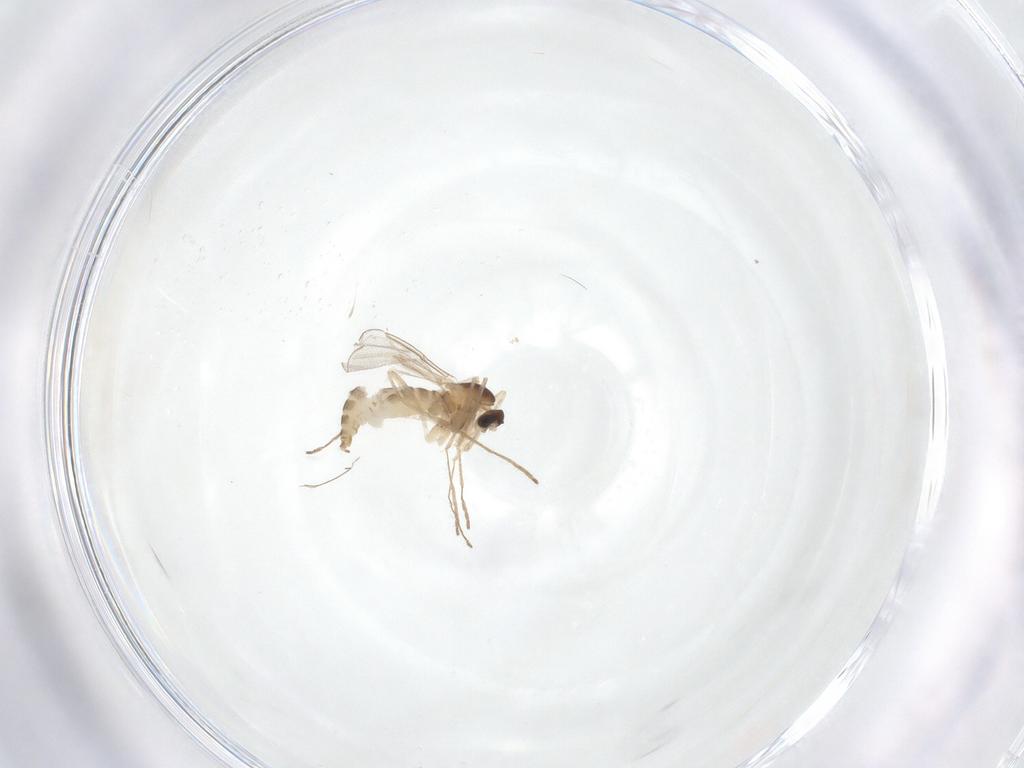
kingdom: Animalia
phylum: Arthropoda
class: Insecta
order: Diptera
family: Cecidomyiidae
